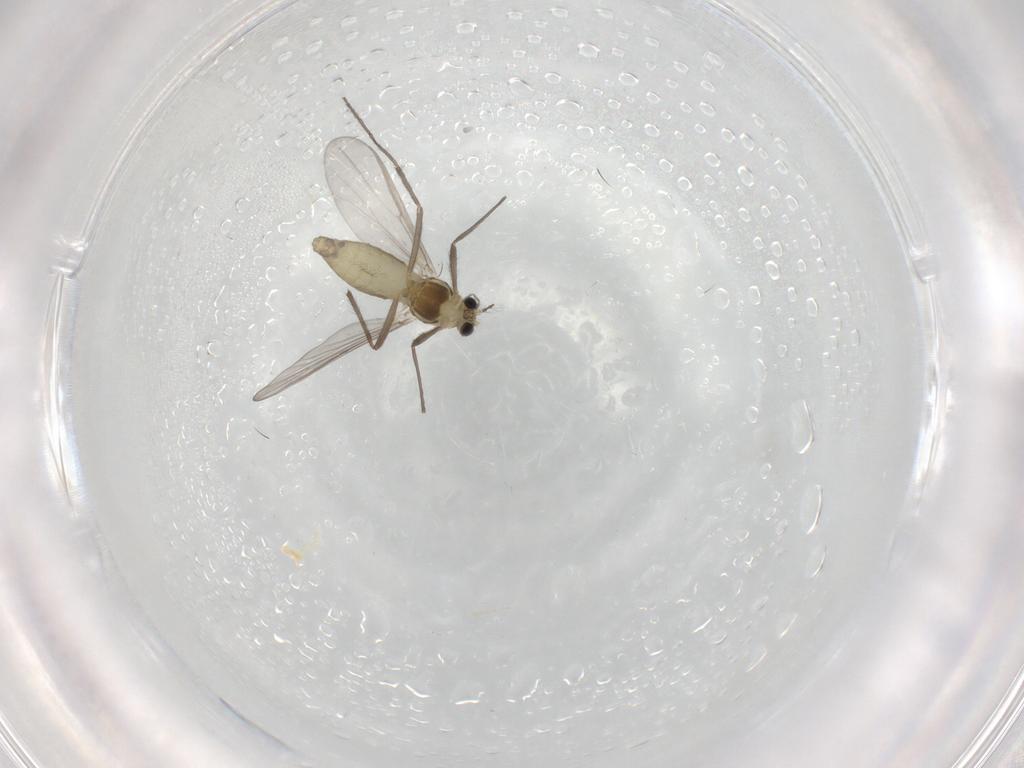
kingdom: Animalia
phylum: Arthropoda
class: Insecta
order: Diptera
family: Chironomidae
